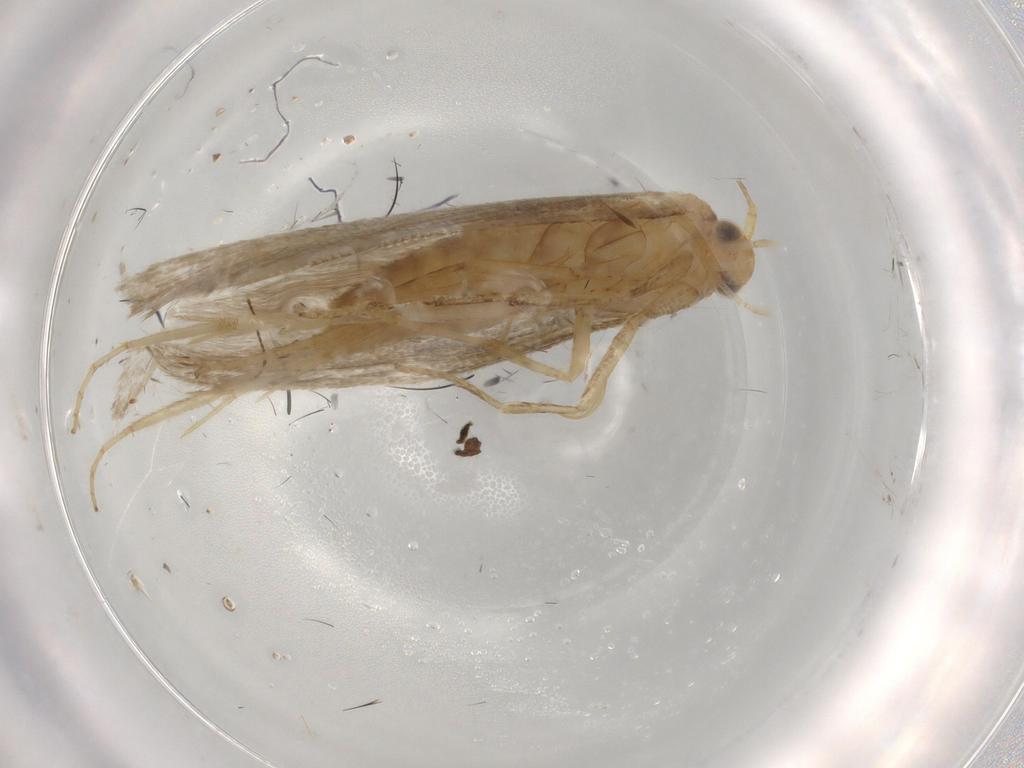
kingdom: Animalia
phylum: Arthropoda
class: Insecta
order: Lepidoptera
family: Argyresthiidae
